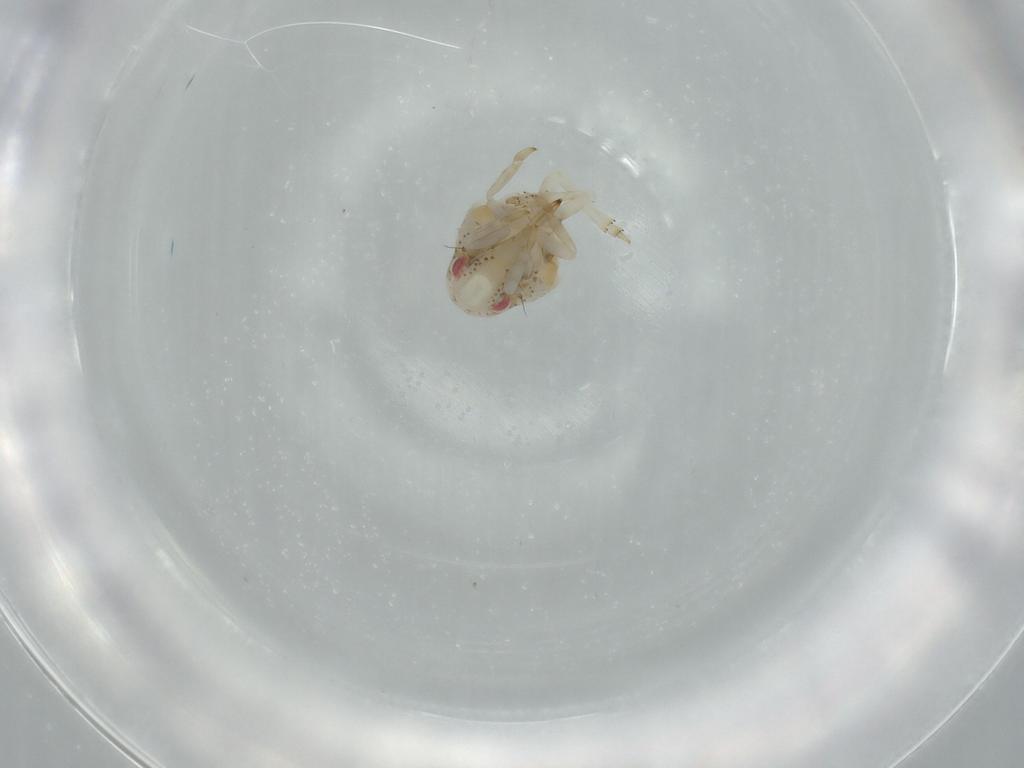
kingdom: Animalia
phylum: Arthropoda
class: Insecta
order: Hemiptera
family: Acanaloniidae
